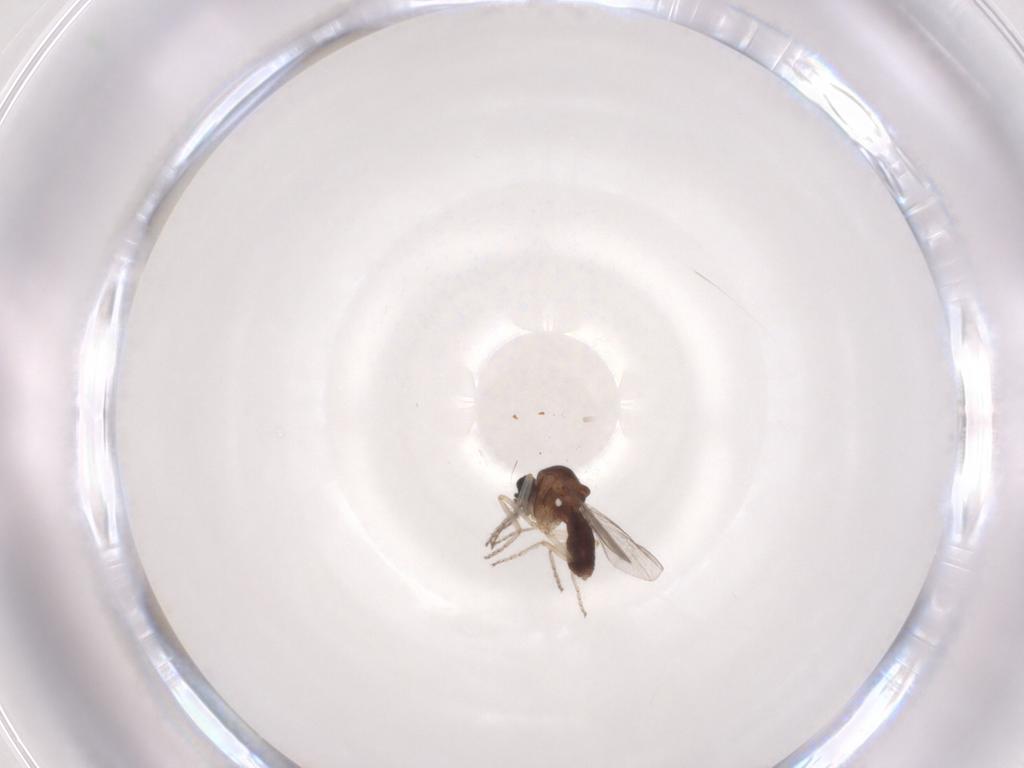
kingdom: Animalia
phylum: Arthropoda
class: Insecta
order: Diptera
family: Ceratopogonidae
